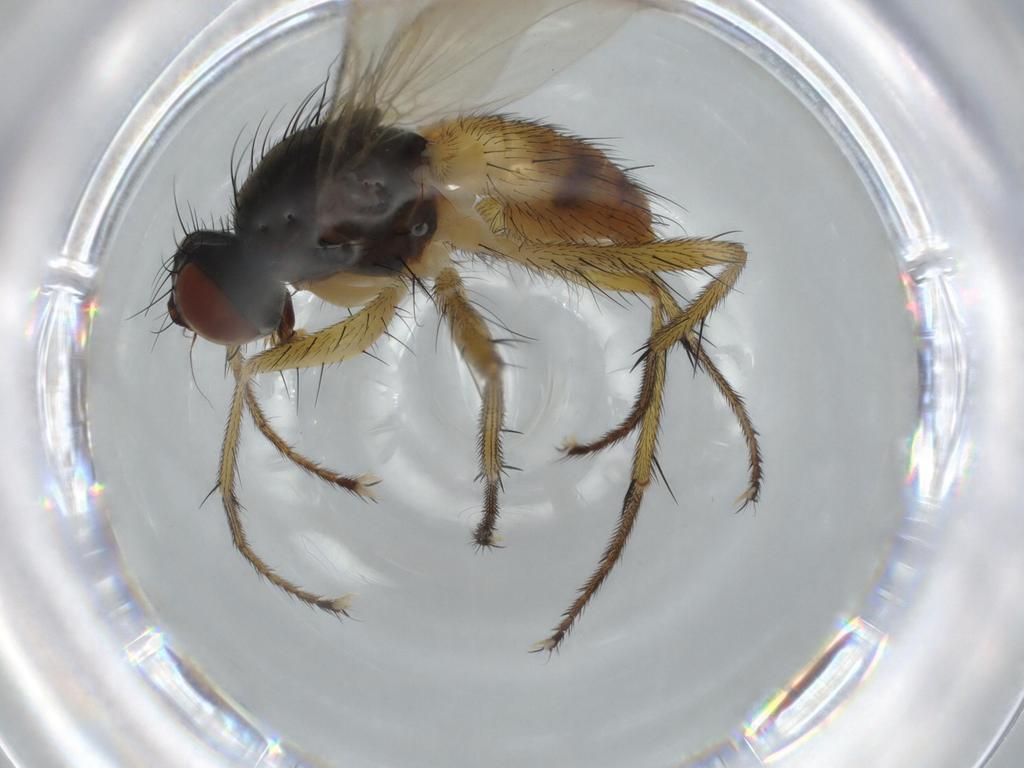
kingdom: Animalia
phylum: Arthropoda
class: Insecta
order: Diptera
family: Muscidae
